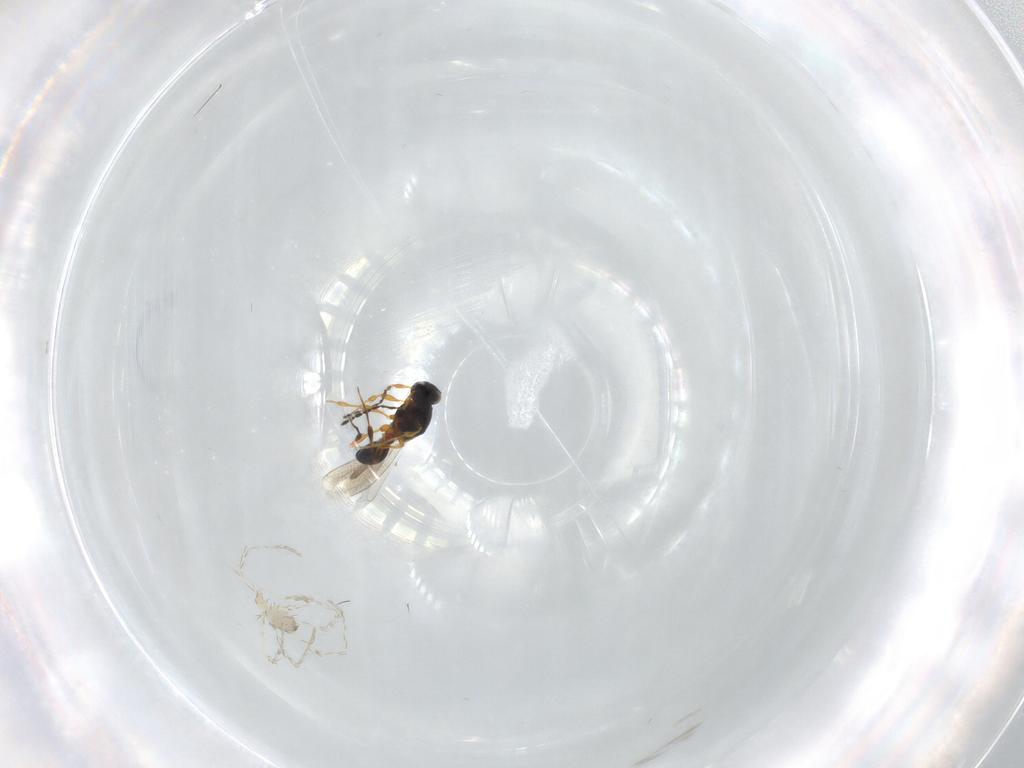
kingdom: Animalia
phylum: Arthropoda
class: Insecta
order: Hymenoptera
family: Platygastridae
